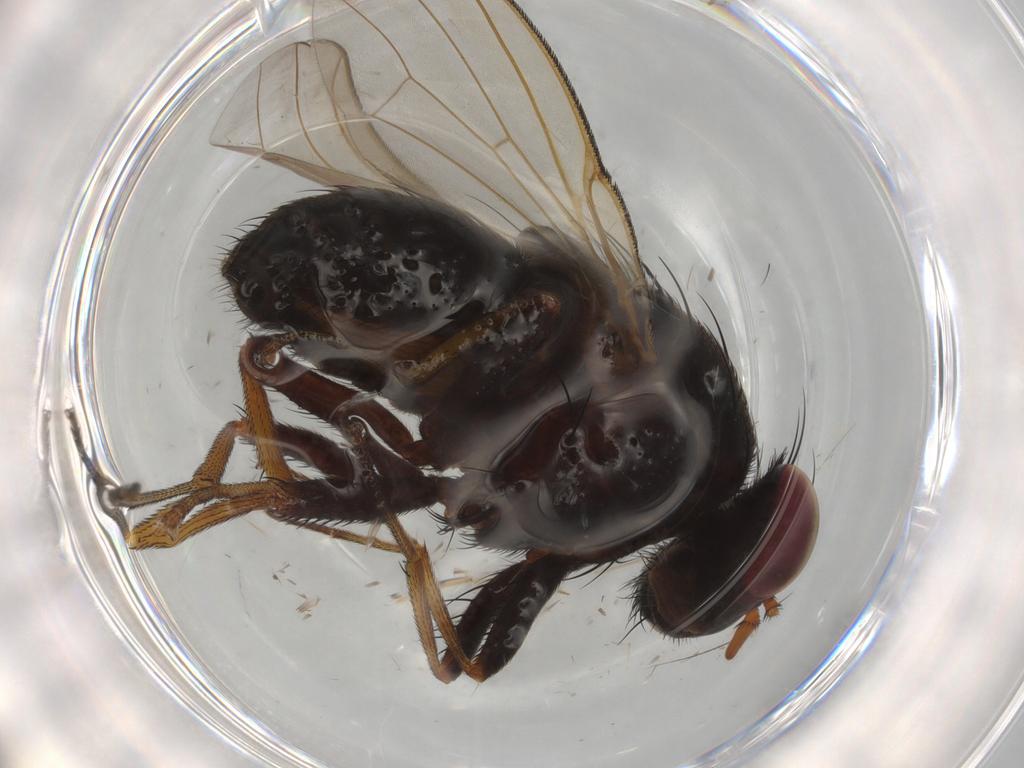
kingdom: Animalia
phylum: Arthropoda
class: Insecta
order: Diptera
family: Muscidae
